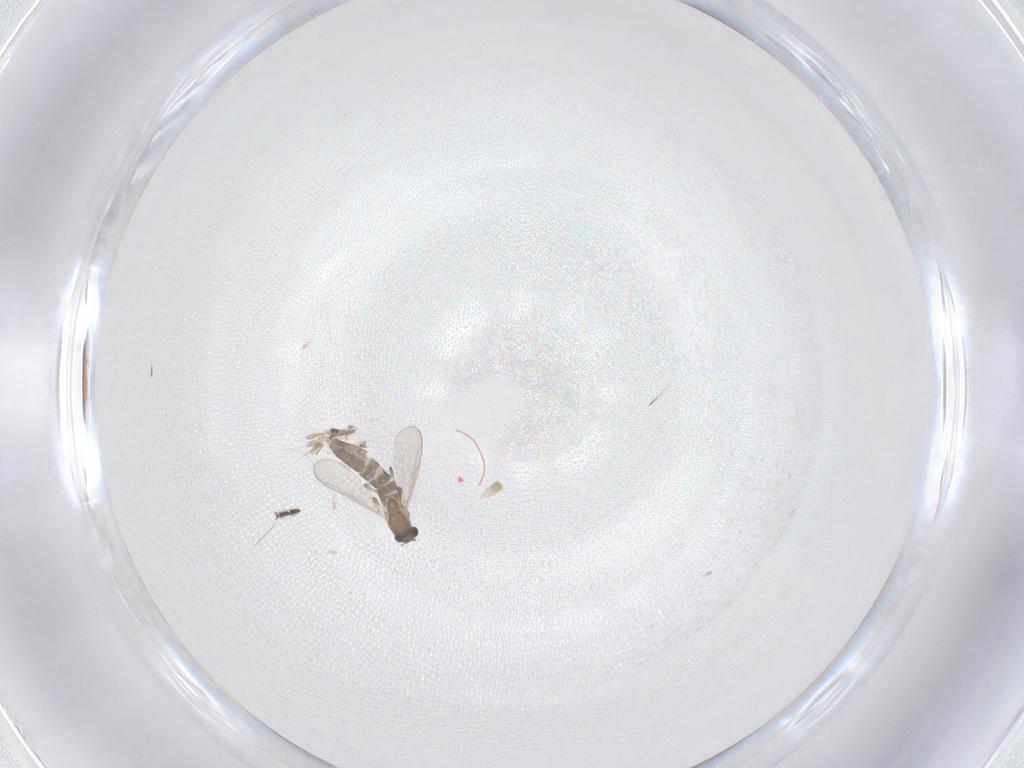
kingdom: Animalia
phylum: Arthropoda
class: Insecta
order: Diptera
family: Chironomidae
